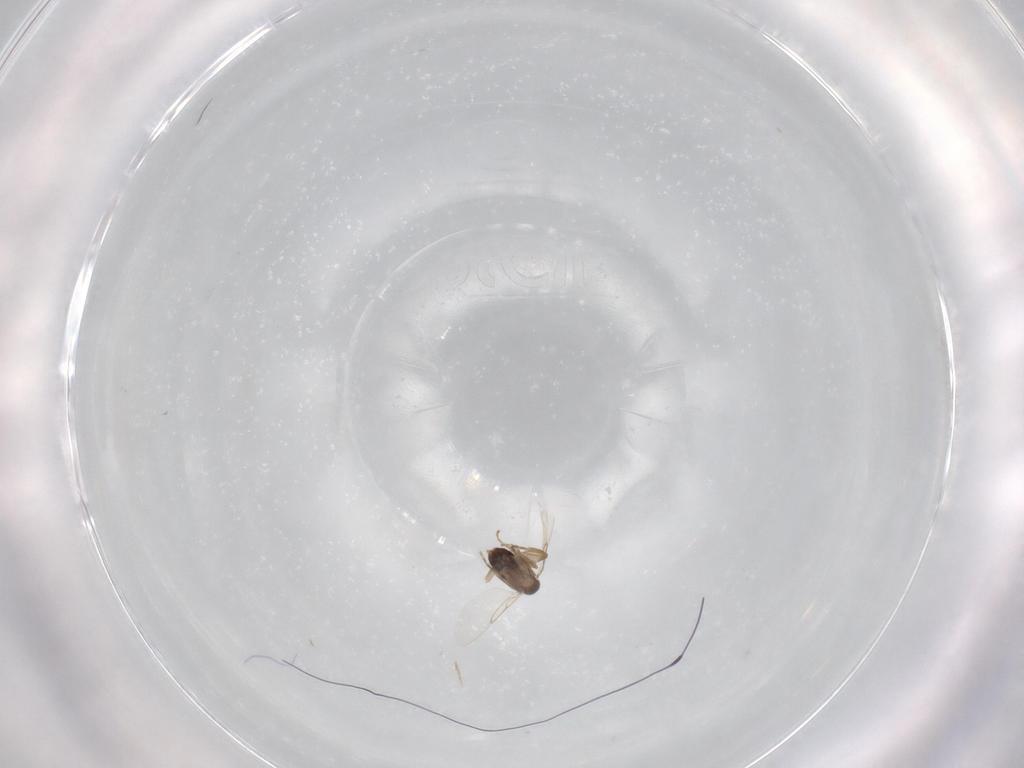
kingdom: Animalia
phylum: Arthropoda
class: Insecta
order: Diptera
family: Phoridae
